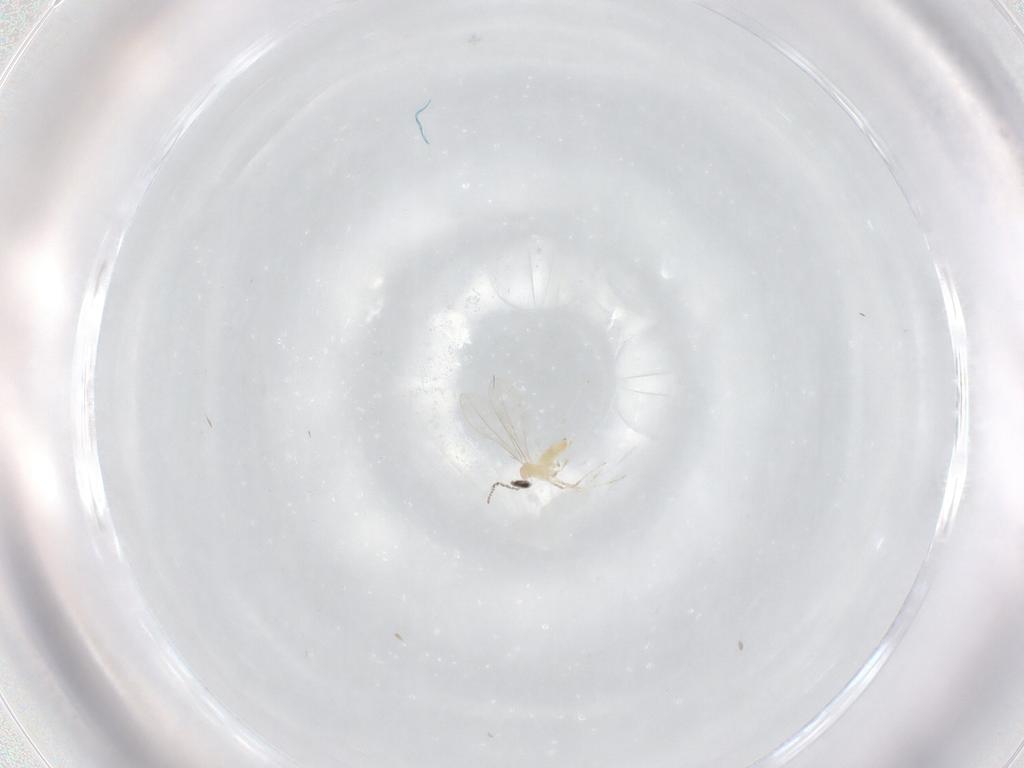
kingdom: Animalia
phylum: Arthropoda
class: Insecta
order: Diptera
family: Cecidomyiidae
